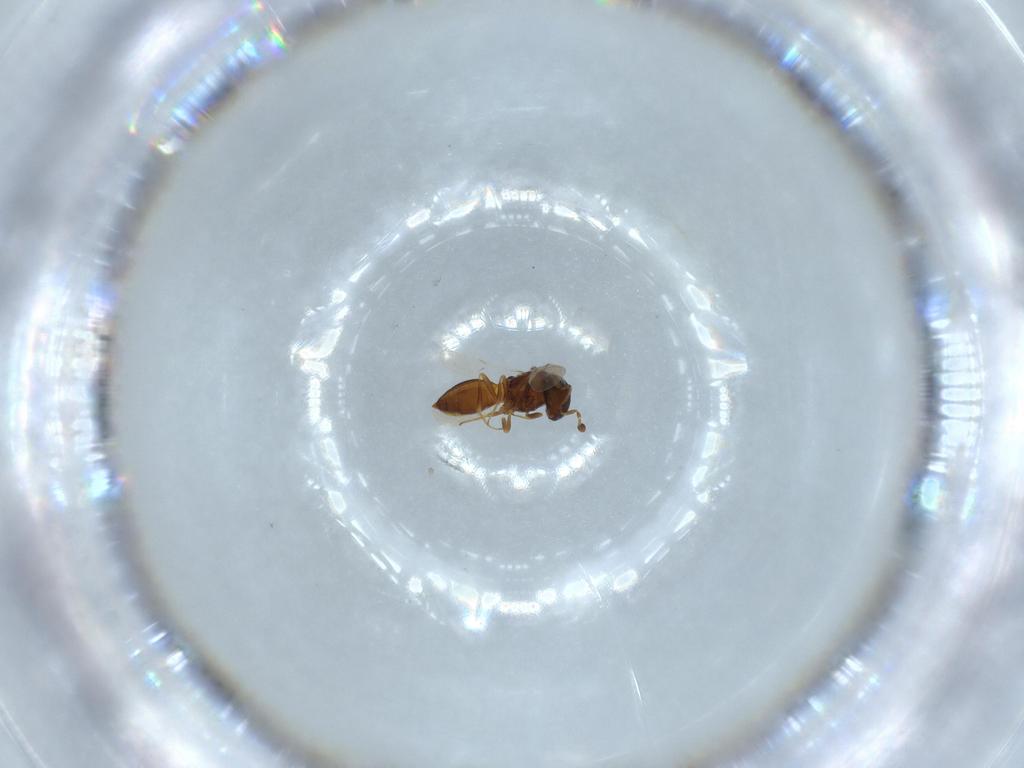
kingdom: Animalia
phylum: Arthropoda
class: Insecta
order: Hymenoptera
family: Scelionidae
